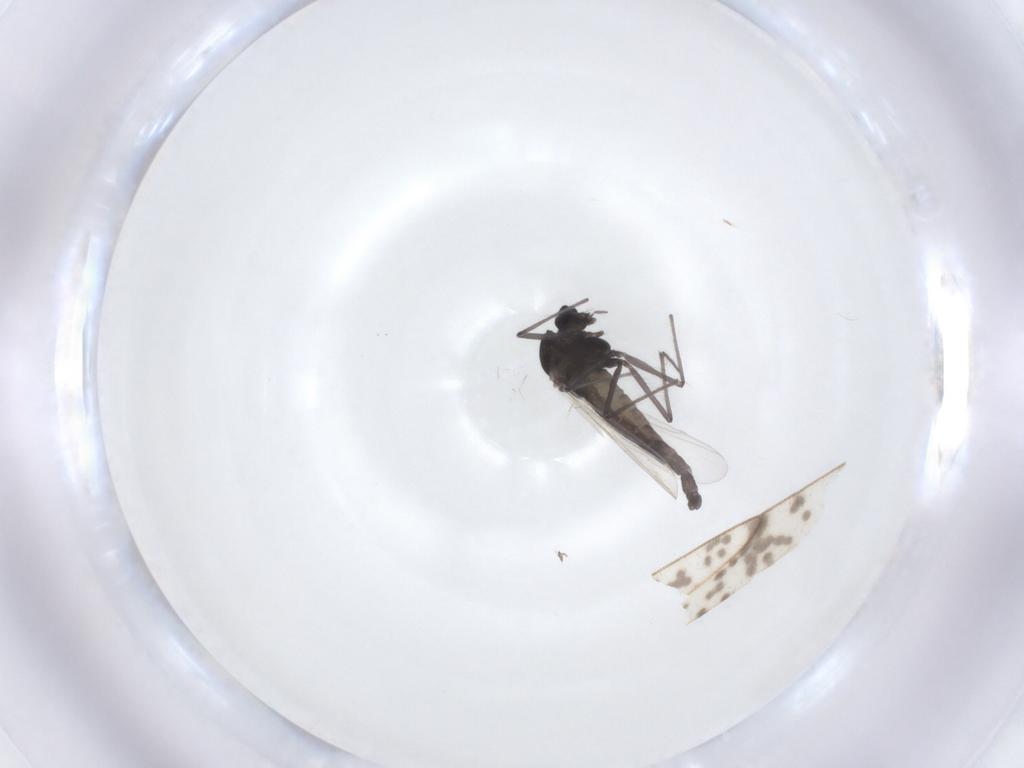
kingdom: Animalia
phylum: Arthropoda
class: Insecta
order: Diptera
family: Chironomidae
